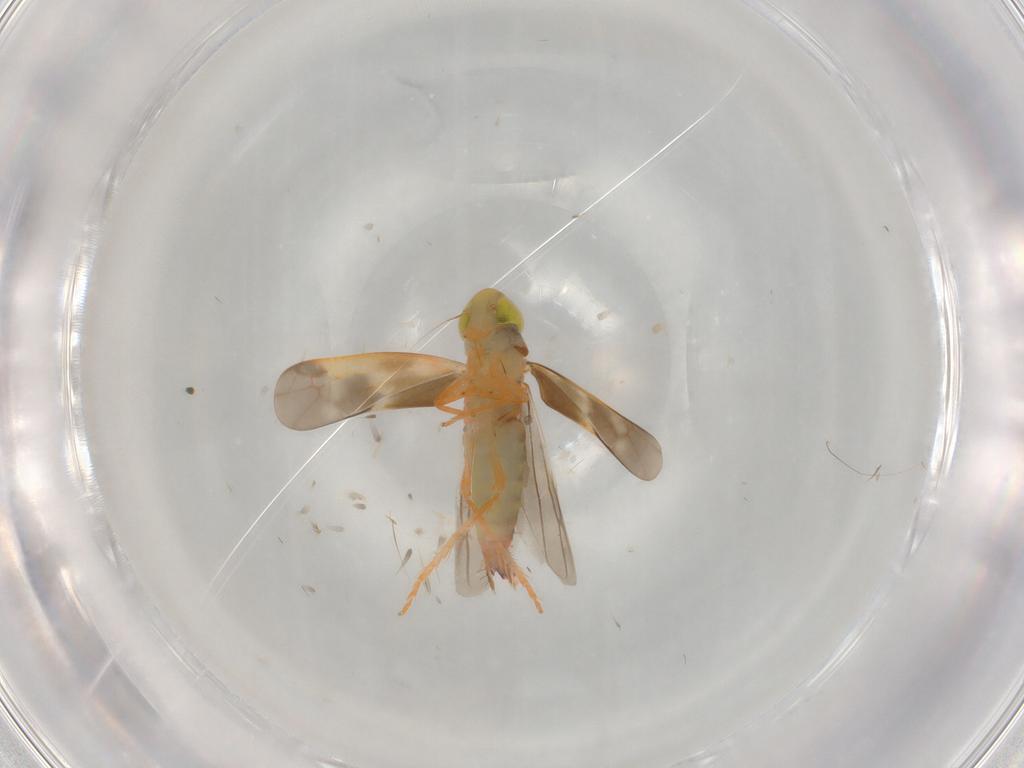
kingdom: Animalia
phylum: Arthropoda
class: Insecta
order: Hemiptera
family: Cicadellidae
